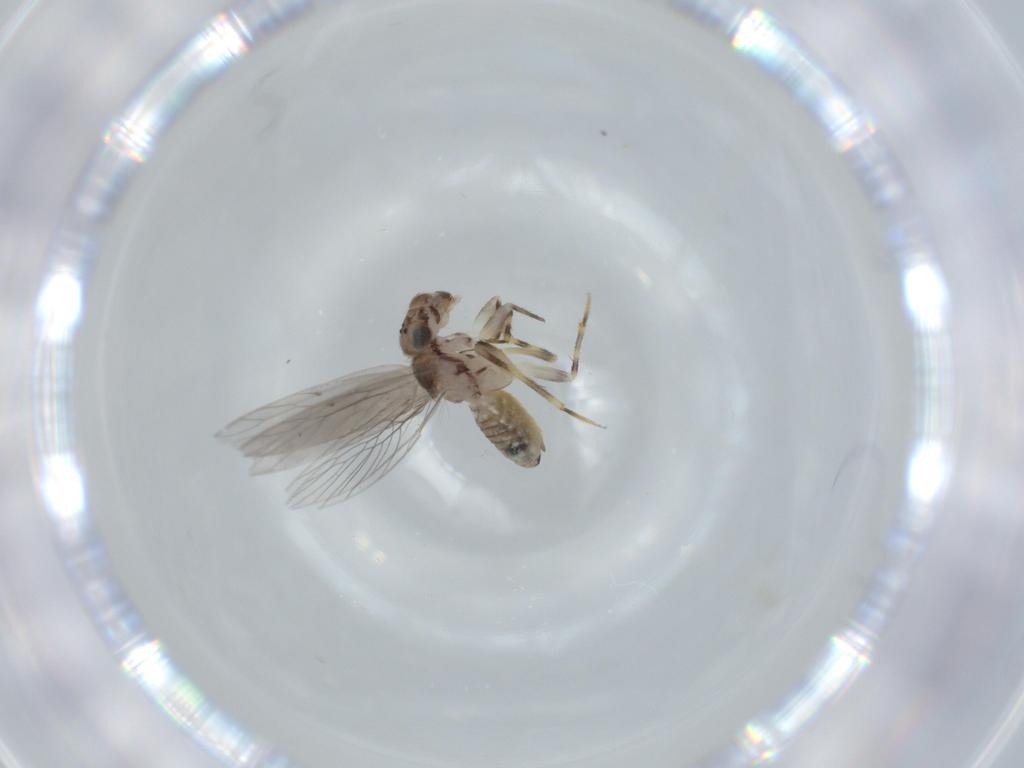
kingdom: Animalia
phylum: Arthropoda
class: Insecta
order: Psocodea
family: Lepidopsocidae
